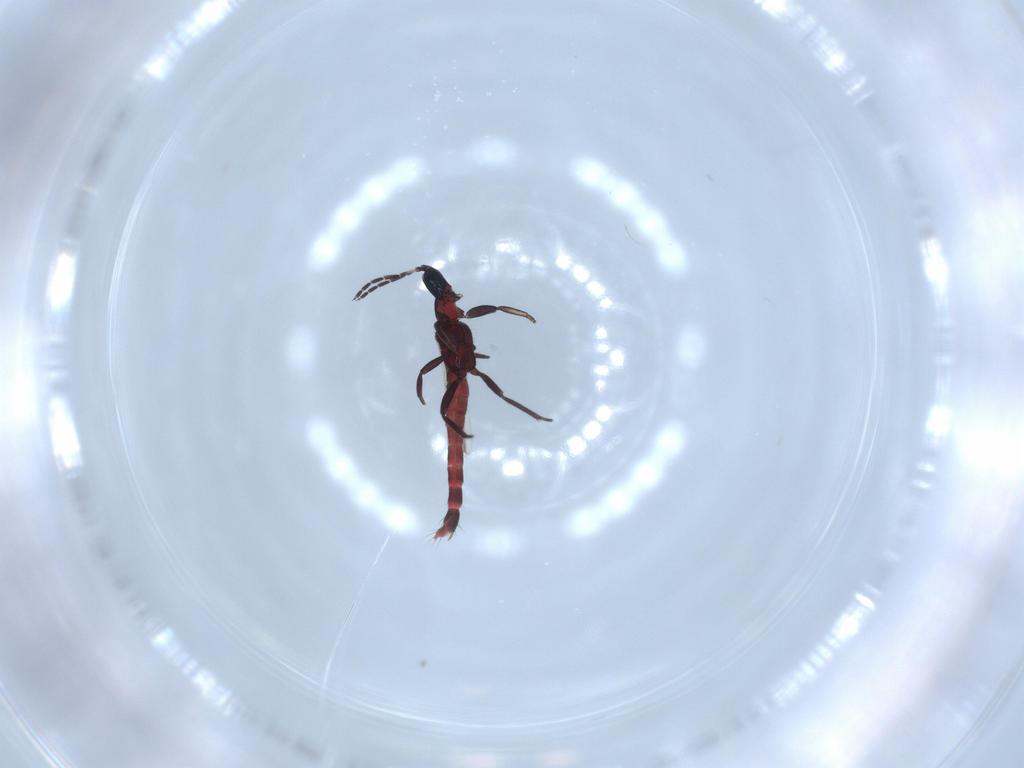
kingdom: Animalia
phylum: Arthropoda
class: Insecta
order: Thysanoptera
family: Aeolothripidae
